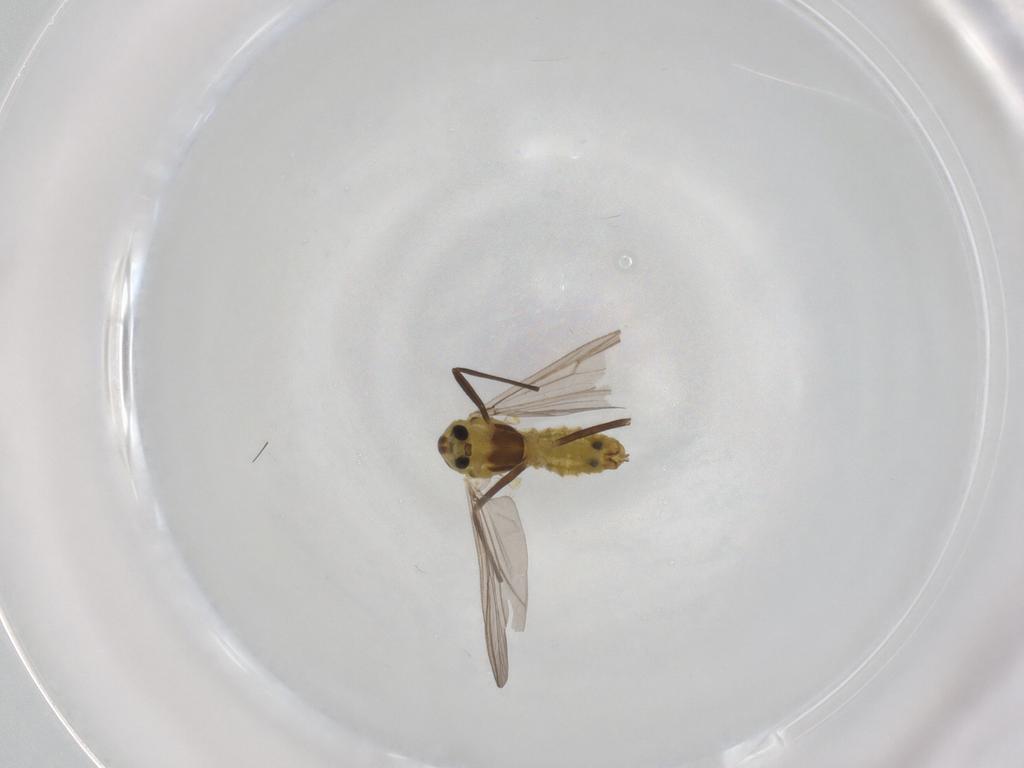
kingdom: Animalia
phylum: Arthropoda
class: Insecta
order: Diptera
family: Chironomidae
